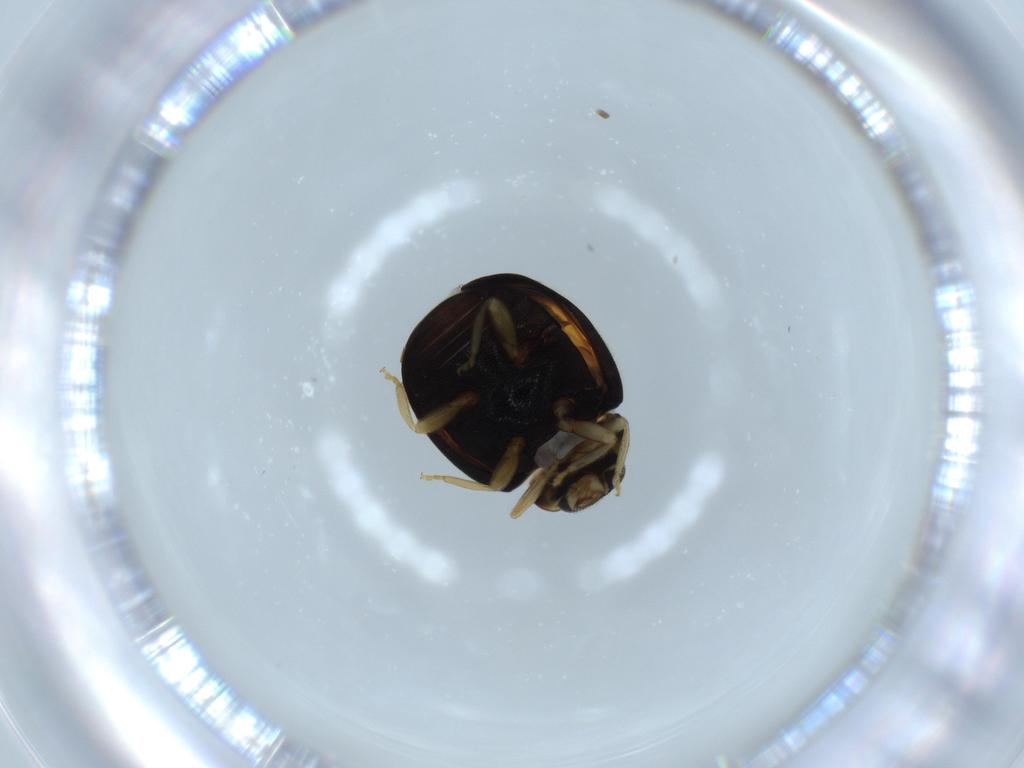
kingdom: Animalia
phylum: Arthropoda
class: Insecta
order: Coleoptera
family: Coccinellidae
